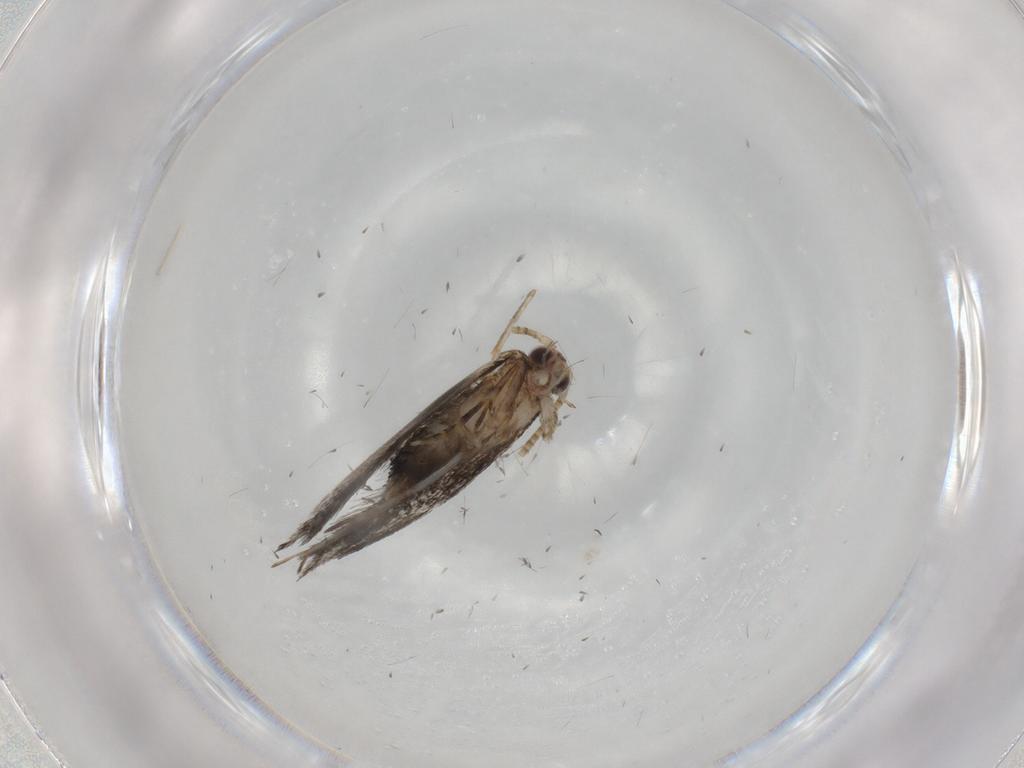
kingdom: Animalia
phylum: Arthropoda
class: Insecta
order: Lepidoptera
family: Tineidae
